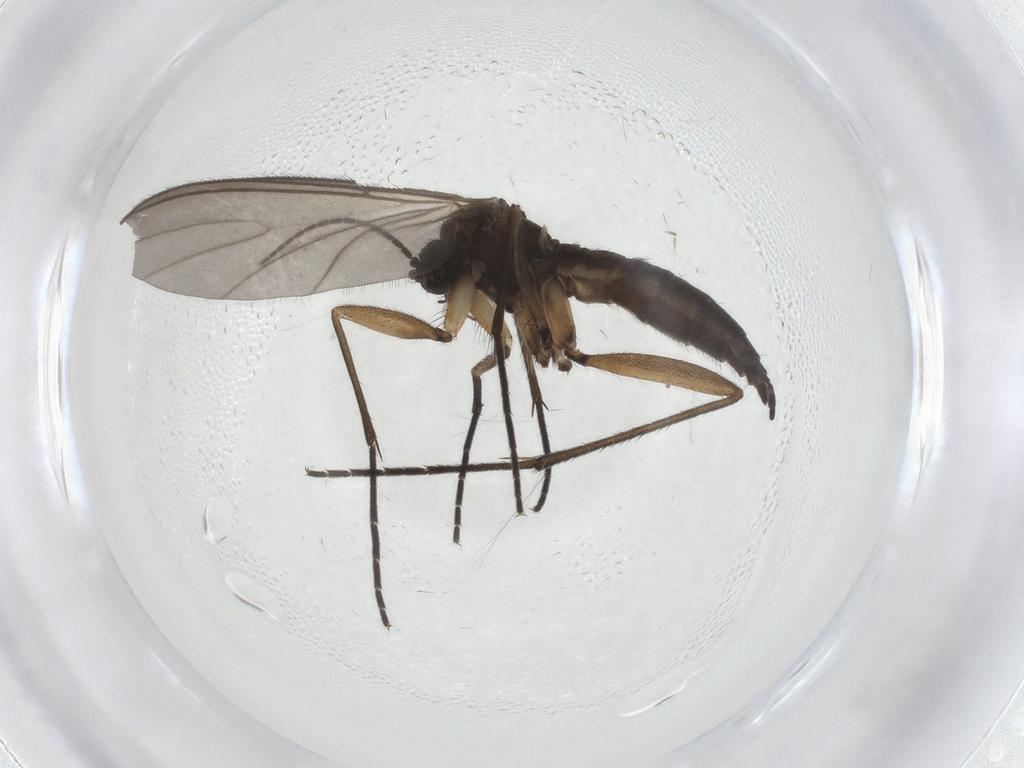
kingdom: Animalia
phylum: Arthropoda
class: Insecta
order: Diptera
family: Sciaridae
